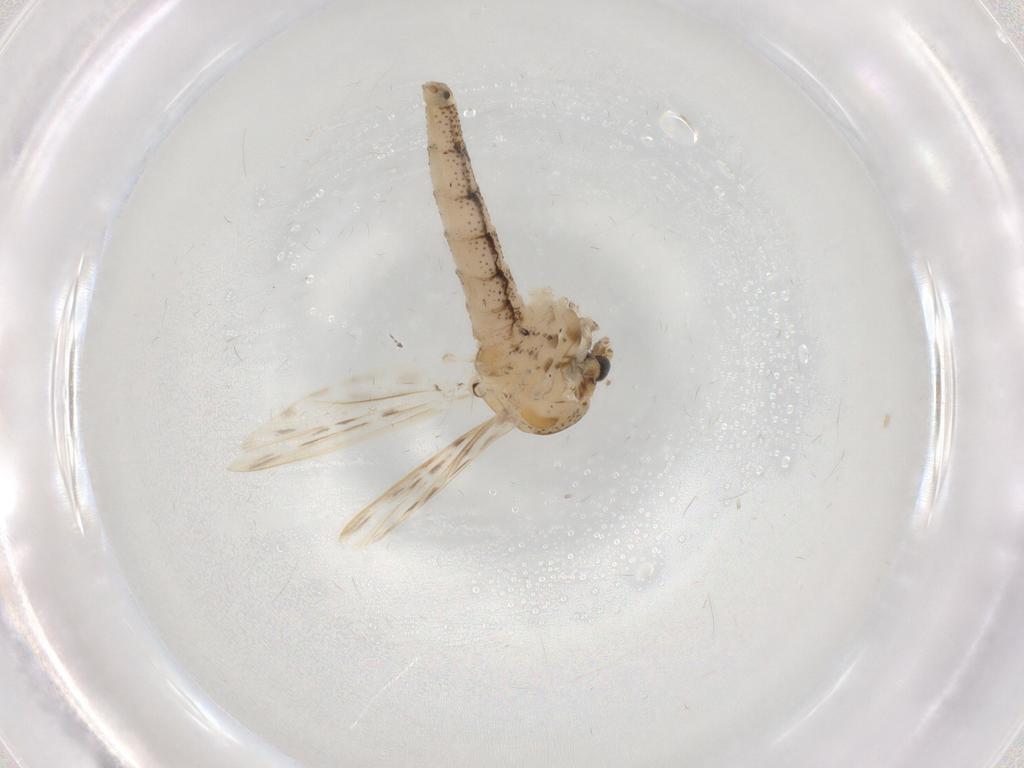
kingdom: Animalia
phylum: Arthropoda
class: Insecta
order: Diptera
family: Chaoboridae
